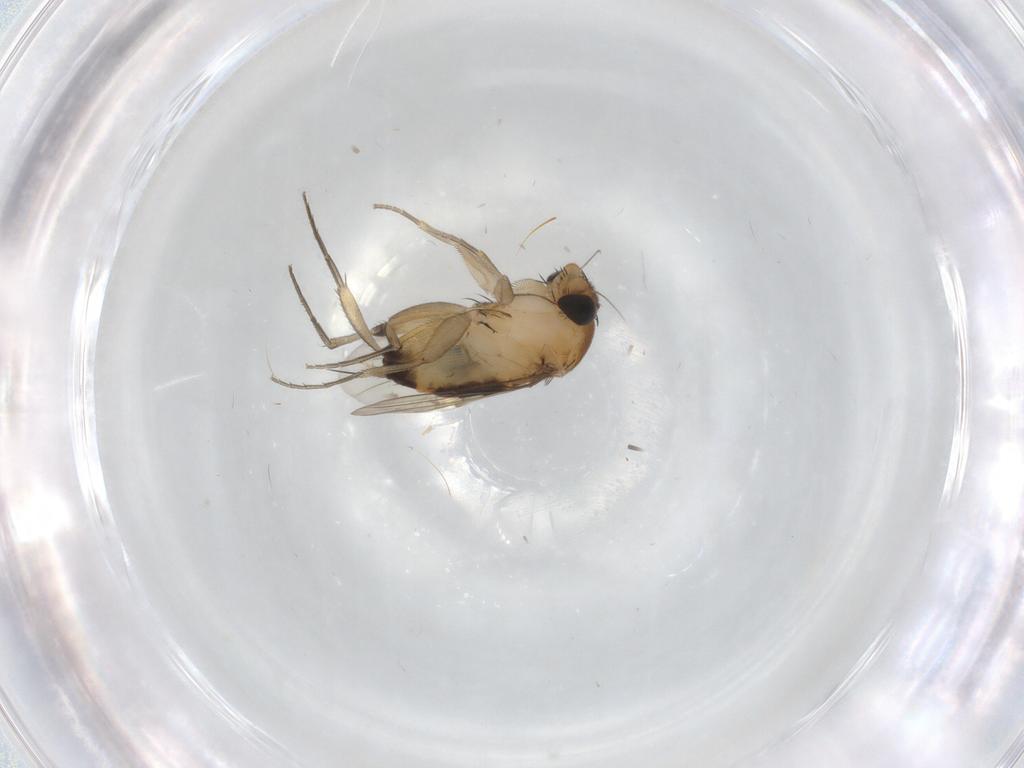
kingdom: Animalia
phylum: Arthropoda
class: Insecta
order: Diptera
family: Phoridae
